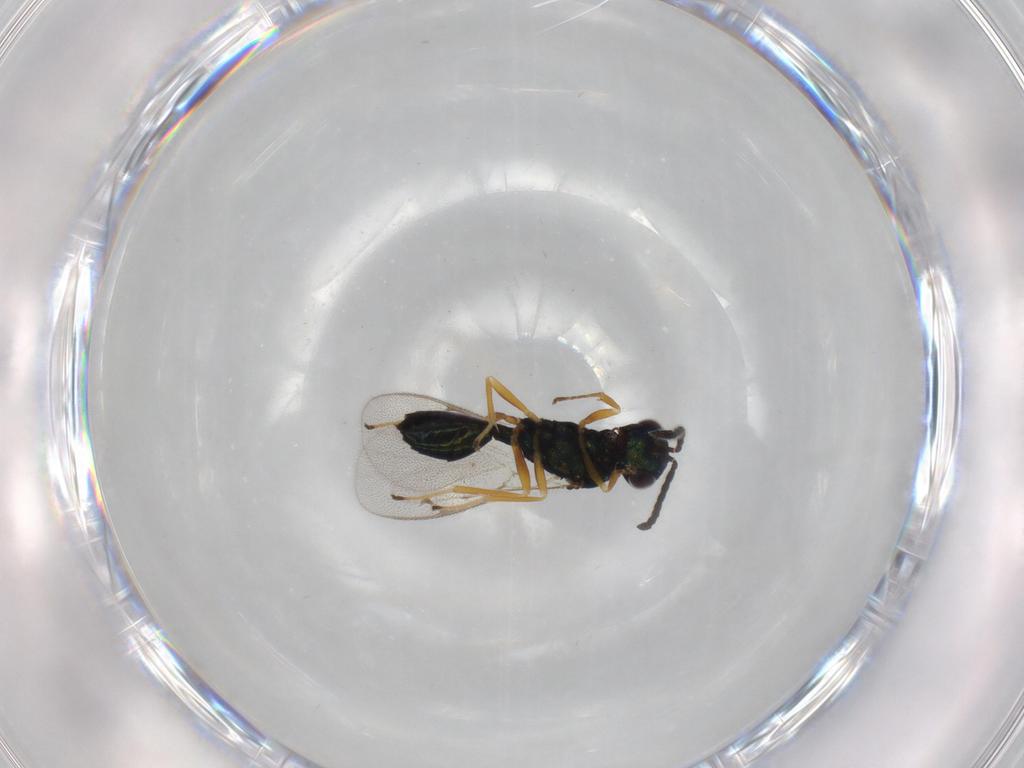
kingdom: Animalia
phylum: Arthropoda
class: Insecta
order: Hymenoptera
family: Pteromalidae
